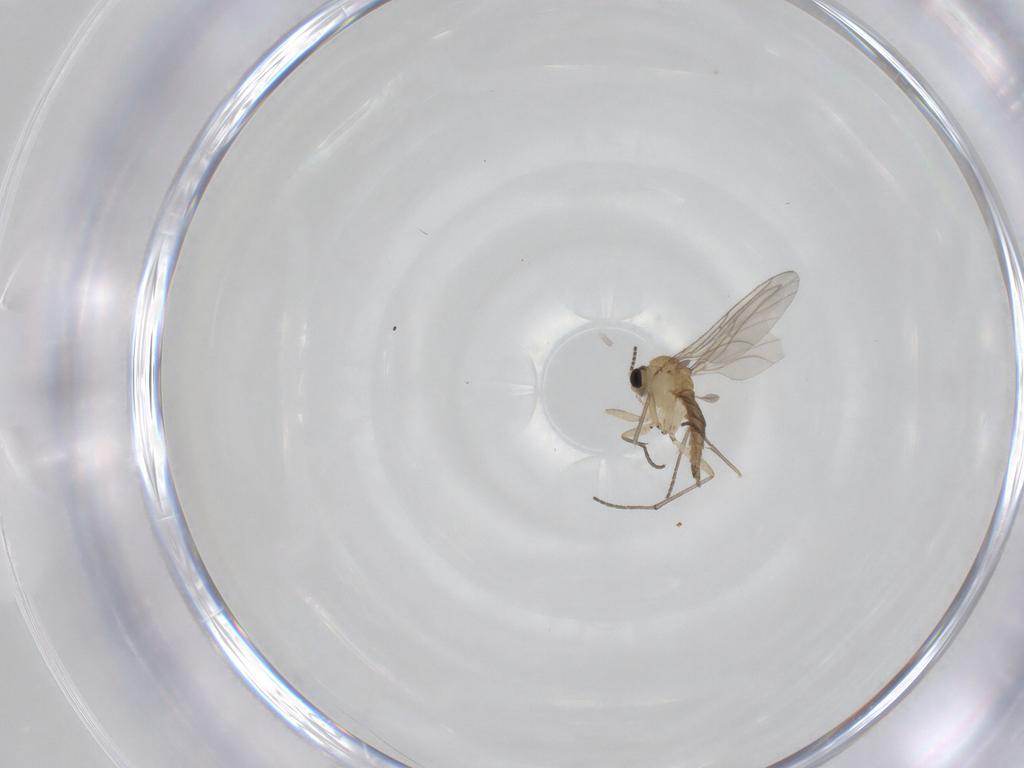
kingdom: Animalia
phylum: Arthropoda
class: Insecta
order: Diptera
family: Sciaridae
